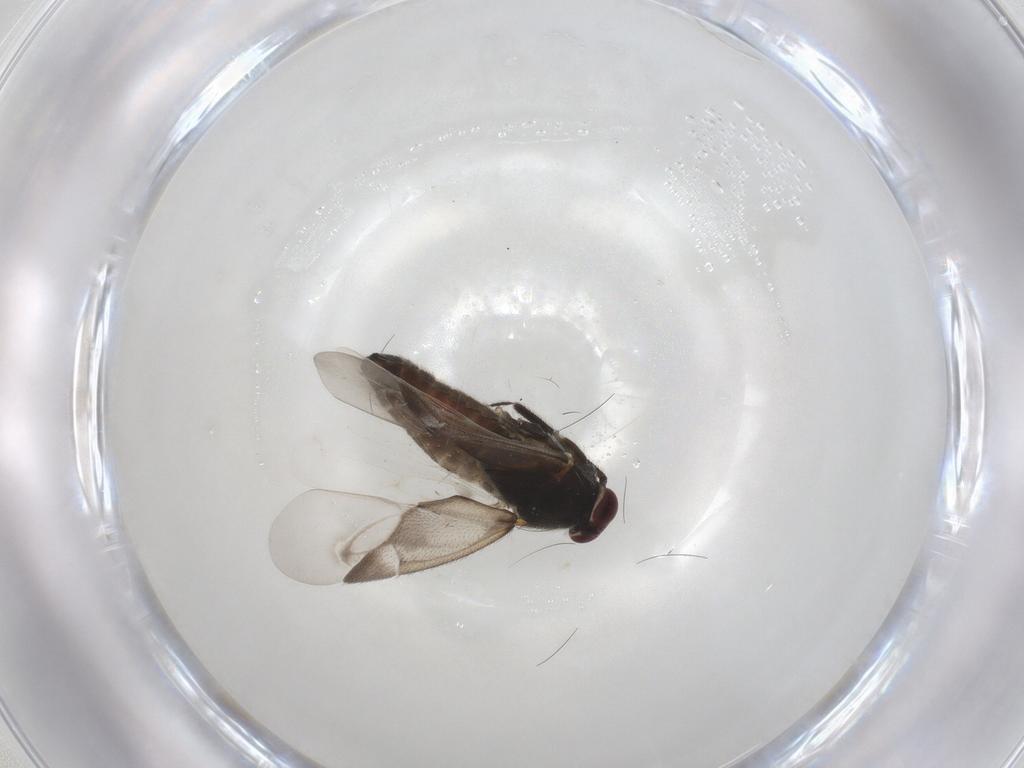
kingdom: Animalia
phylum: Arthropoda
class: Insecta
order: Hemiptera
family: Miridae
